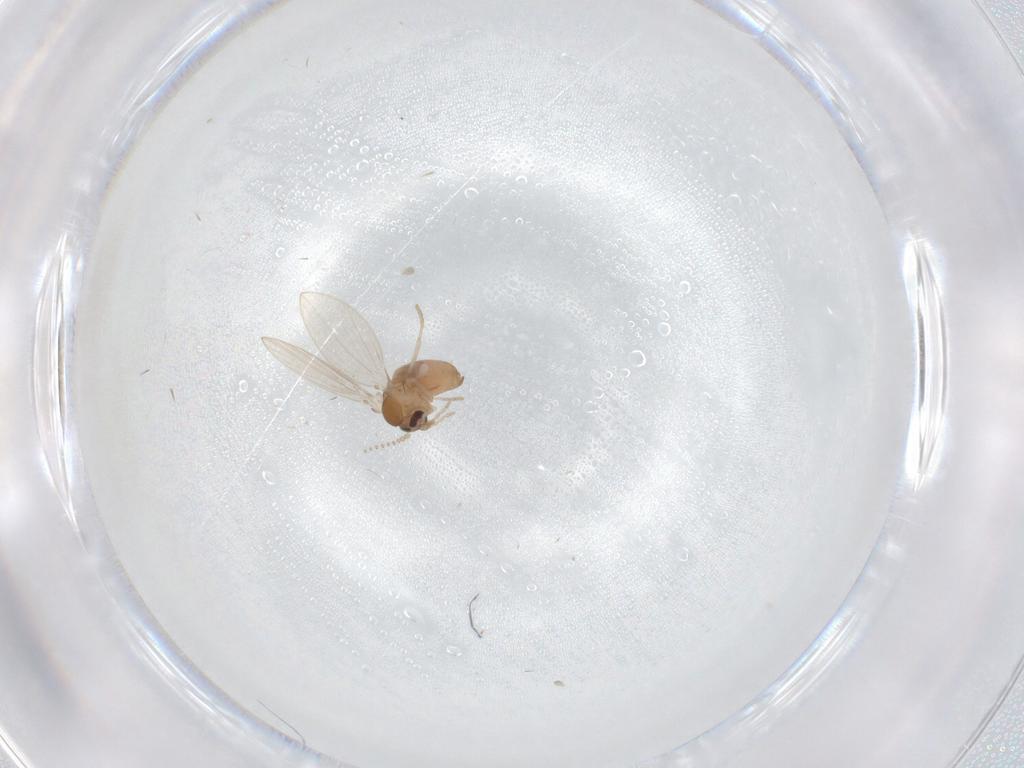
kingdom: Animalia
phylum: Arthropoda
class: Insecta
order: Diptera
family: Psychodidae
